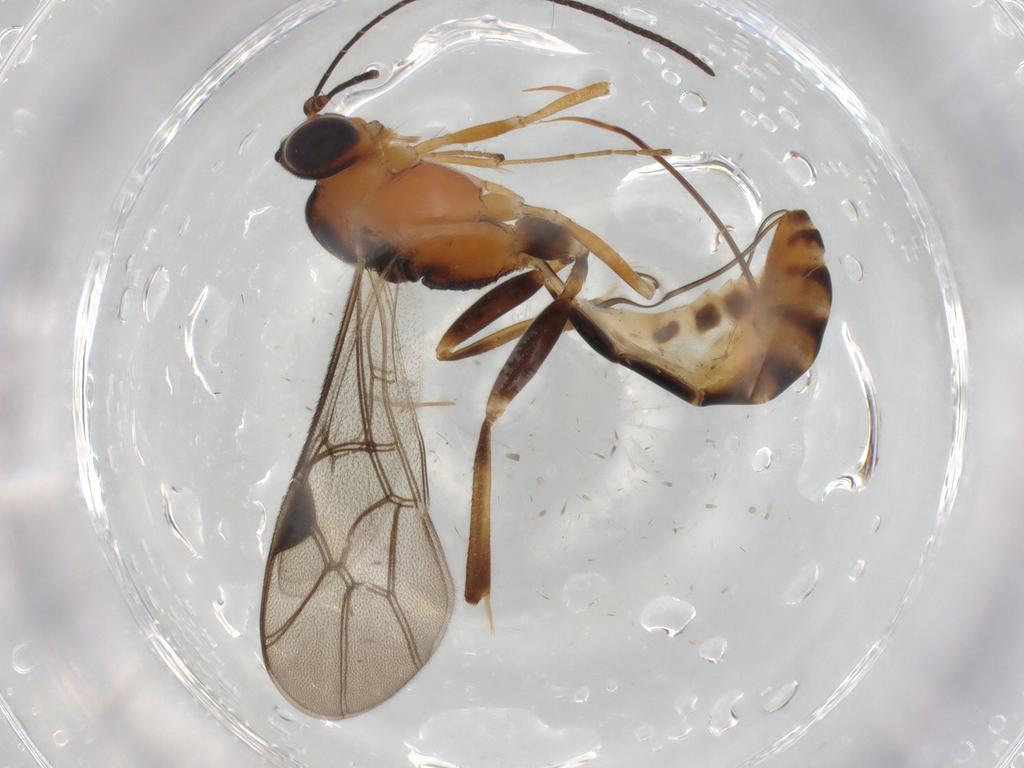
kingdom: Animalia
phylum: Arthropoda
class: Insecta
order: Hymenoptera
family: Ichneumonidae
